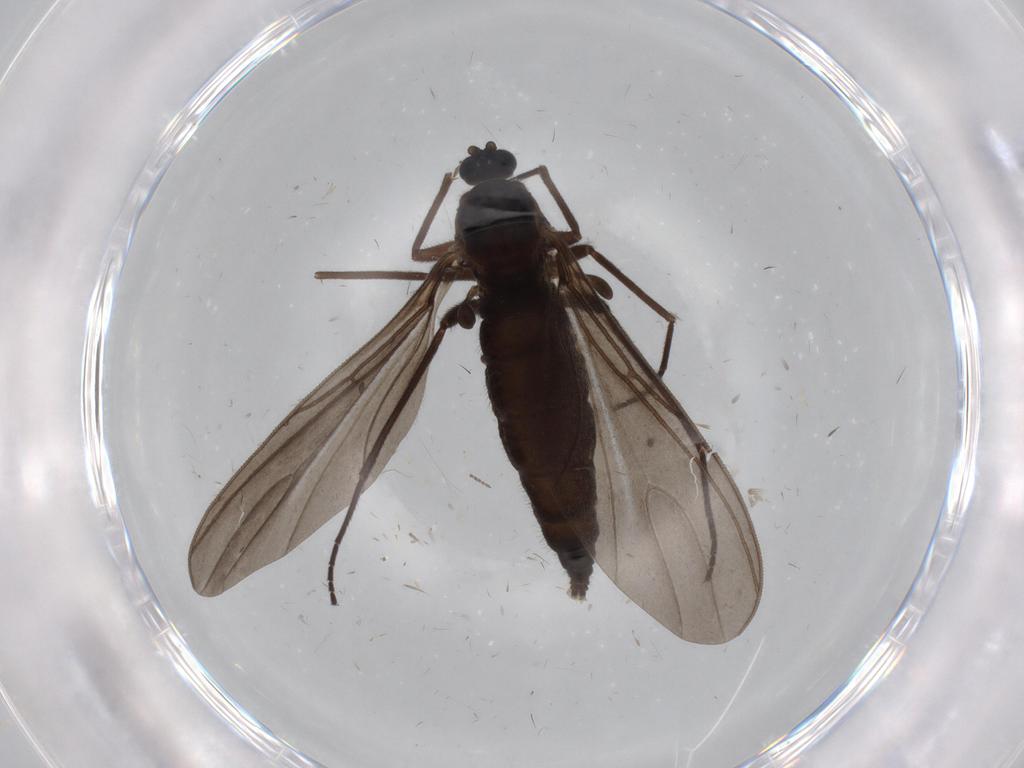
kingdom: Animalia
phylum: Arthropoda
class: Insecta
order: Diptera
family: Sciaridae
